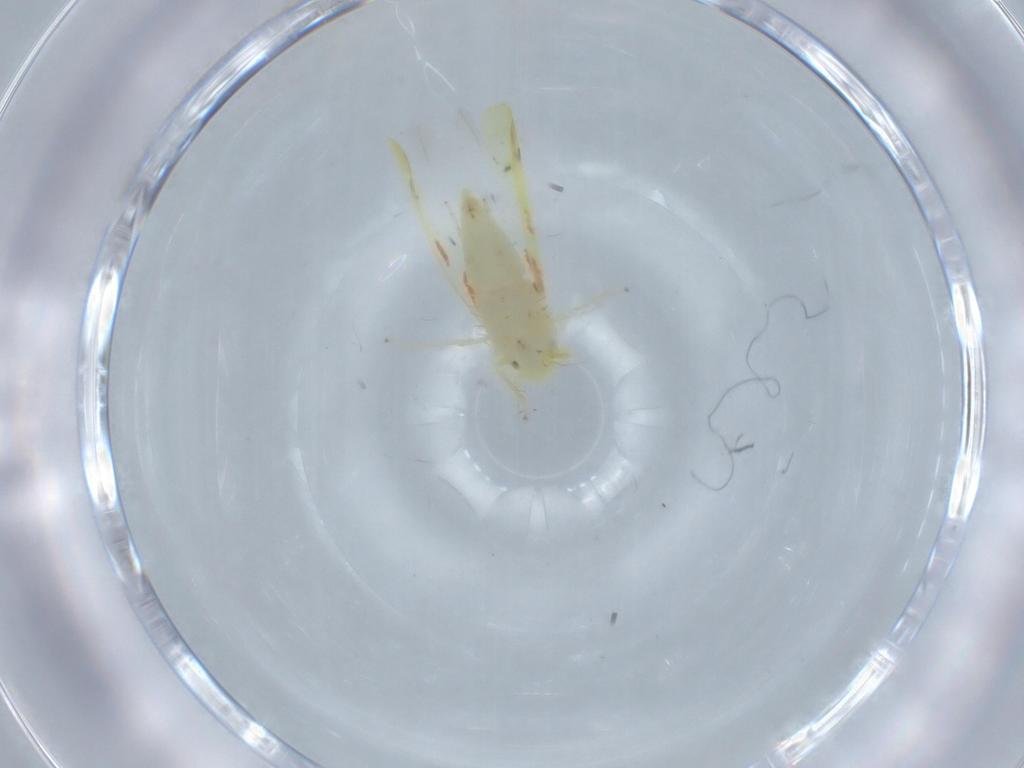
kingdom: Animalia
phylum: Arthropoda
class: Insecta
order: Hemiptera
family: Cicadellidae
